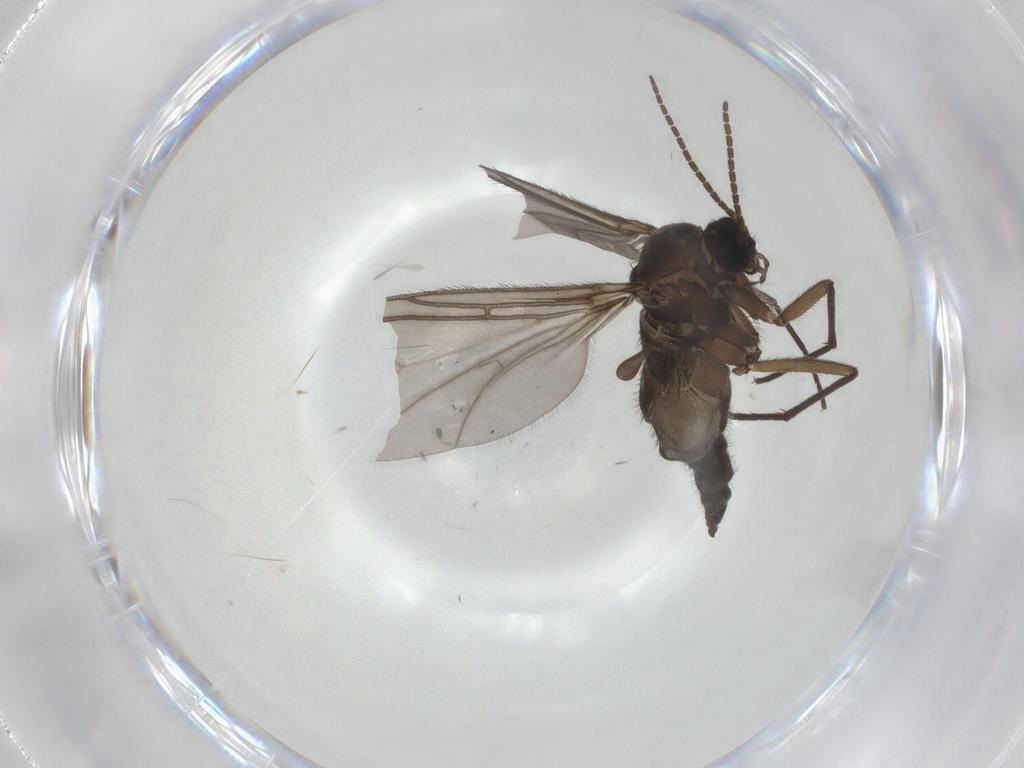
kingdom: Animalia
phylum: Arthropoda
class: Insecta
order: Diptera
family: Sciaridae
